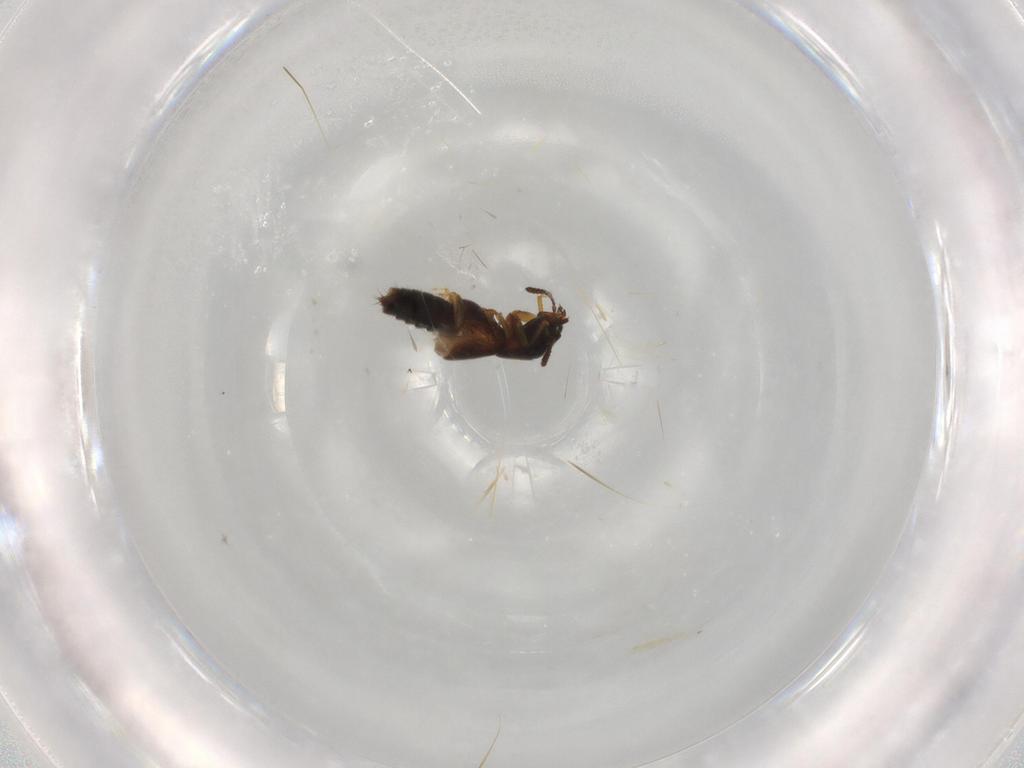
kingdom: Animalia
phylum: Arthropoda
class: Insecta
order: Coleoptera
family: Staphylinidae
